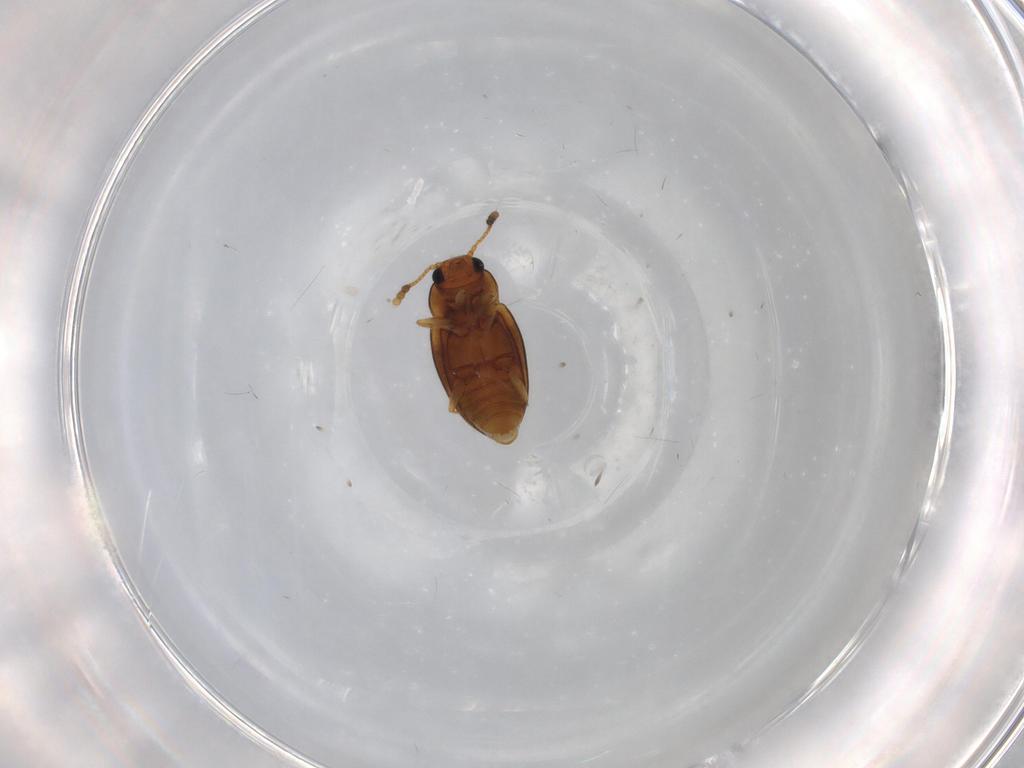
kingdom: Animalia
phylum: Arthropoda
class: Insecta
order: Coleoptera
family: Erotylidae
